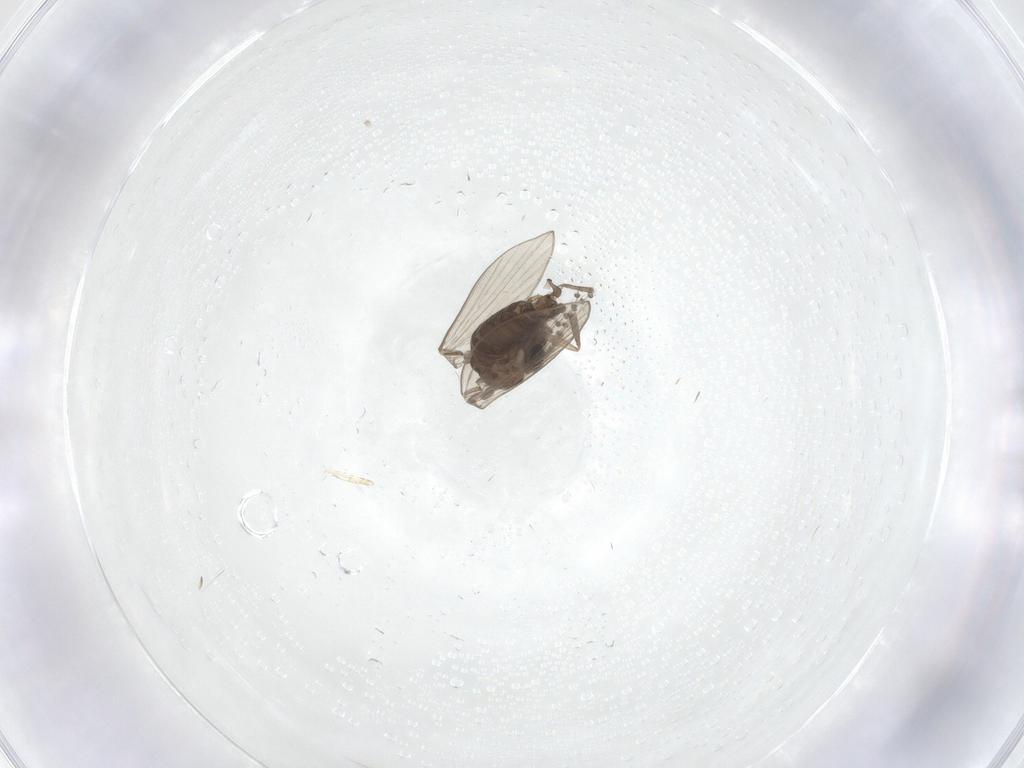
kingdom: Animalia
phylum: Arthropoda
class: Insecta
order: Diptera
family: Psychodidae
